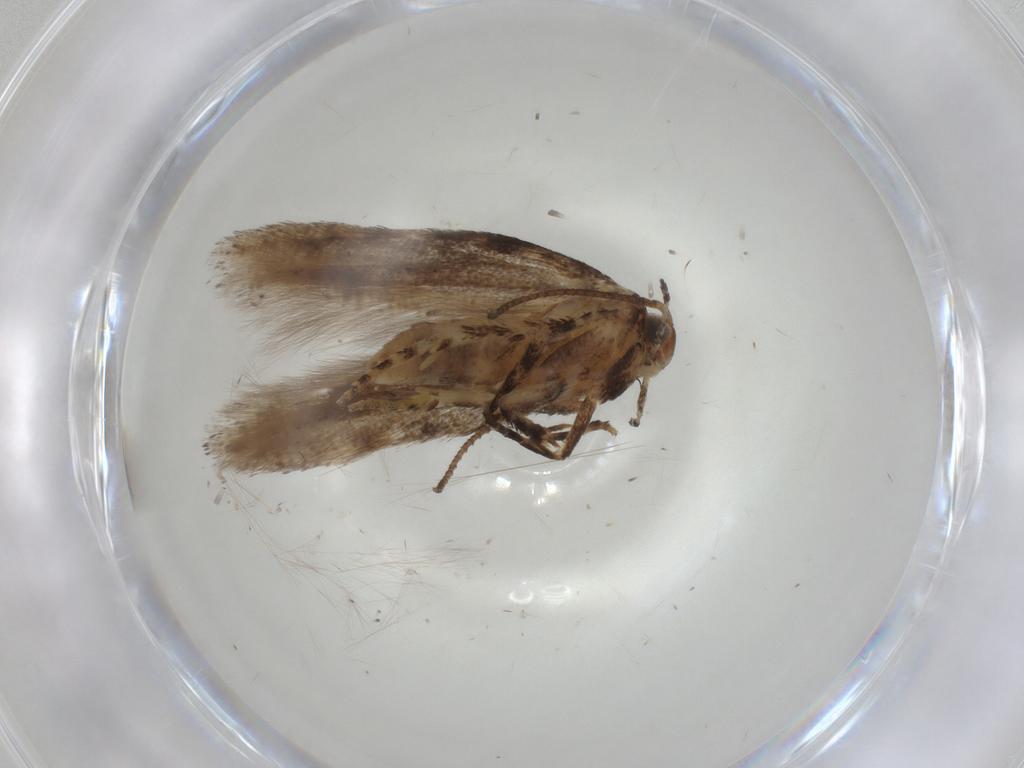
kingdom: Animalia
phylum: Arthropoda
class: Insecta
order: Lepidoptera
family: Gelechiidae
